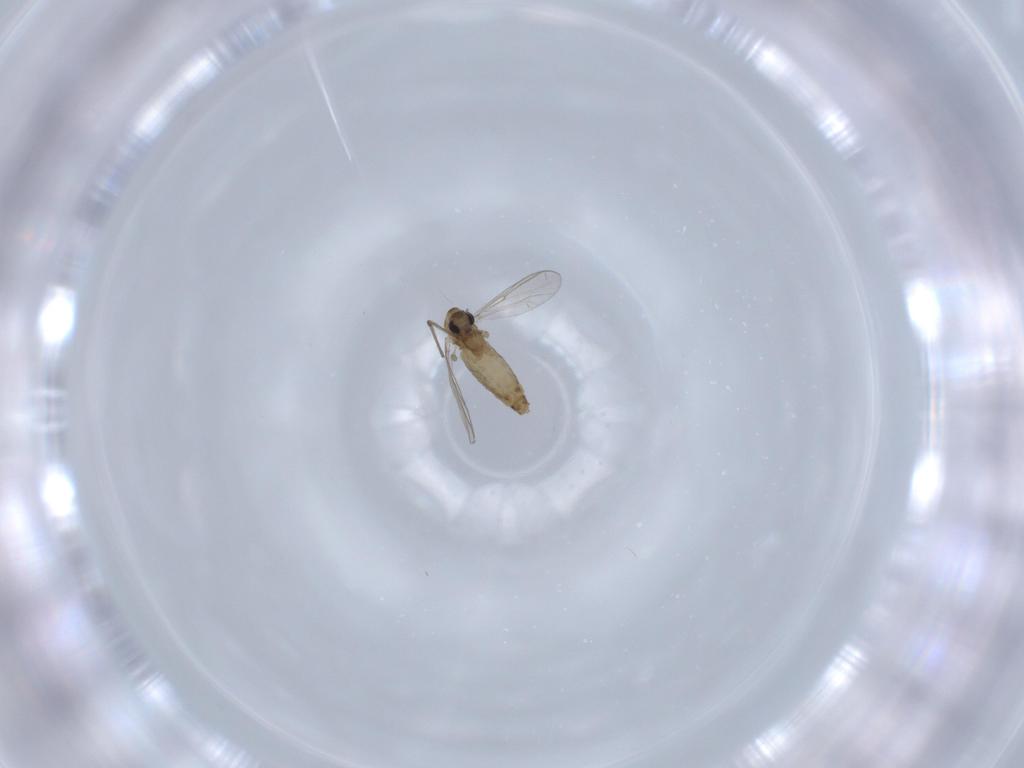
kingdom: Animalia
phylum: Arthropoda
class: Insecta
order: Diptera
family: Chironomidae
